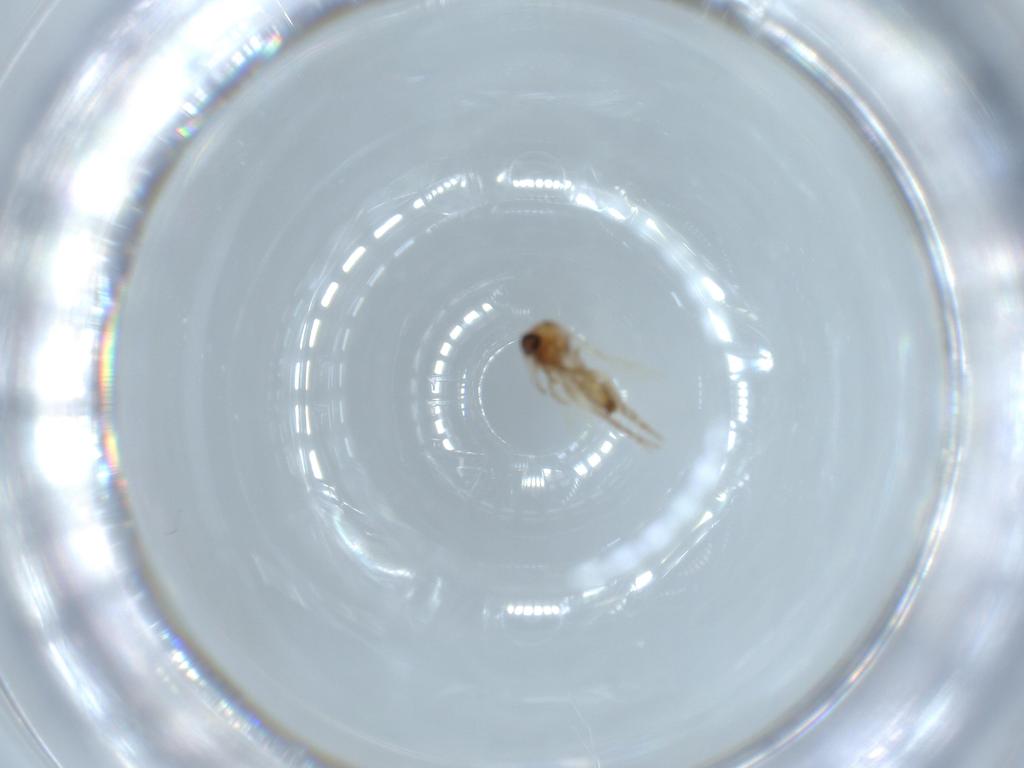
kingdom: Animalia
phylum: Arthropoda
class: Insecta
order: Diptera
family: Ceratopogonidae
